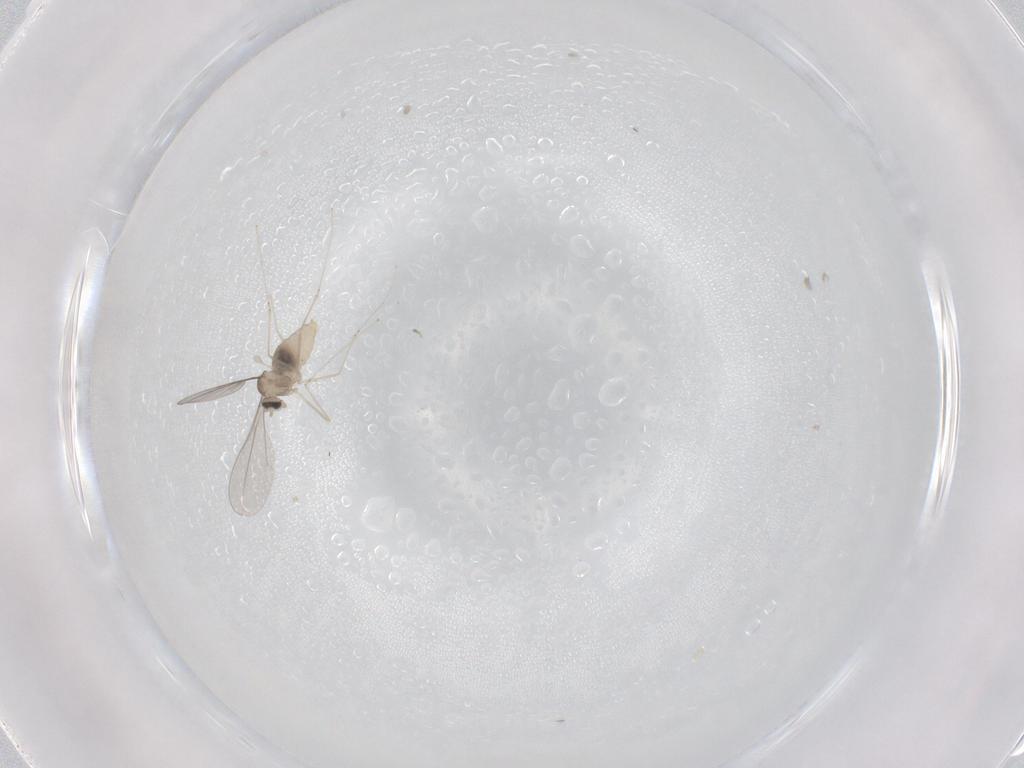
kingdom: Animalia
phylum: Arthropoda
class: Insecta
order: Diptera
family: Cecidomyiidae
